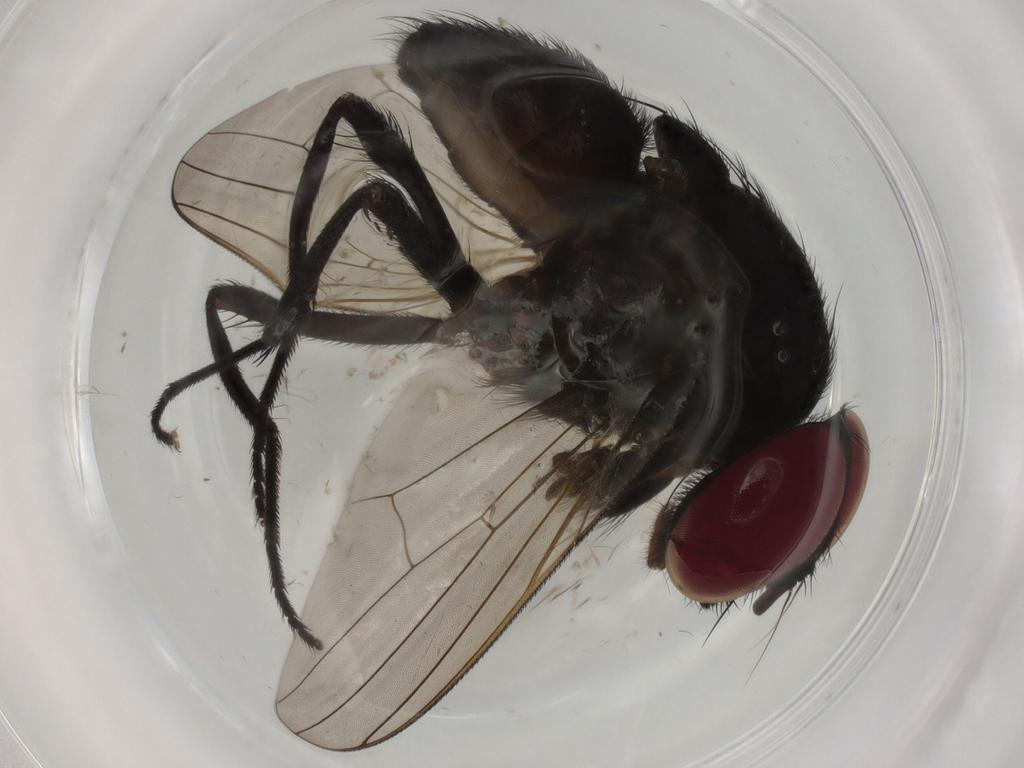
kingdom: Animalia
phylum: Arthropoda
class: Insecta
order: Diptera
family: Muscidae
